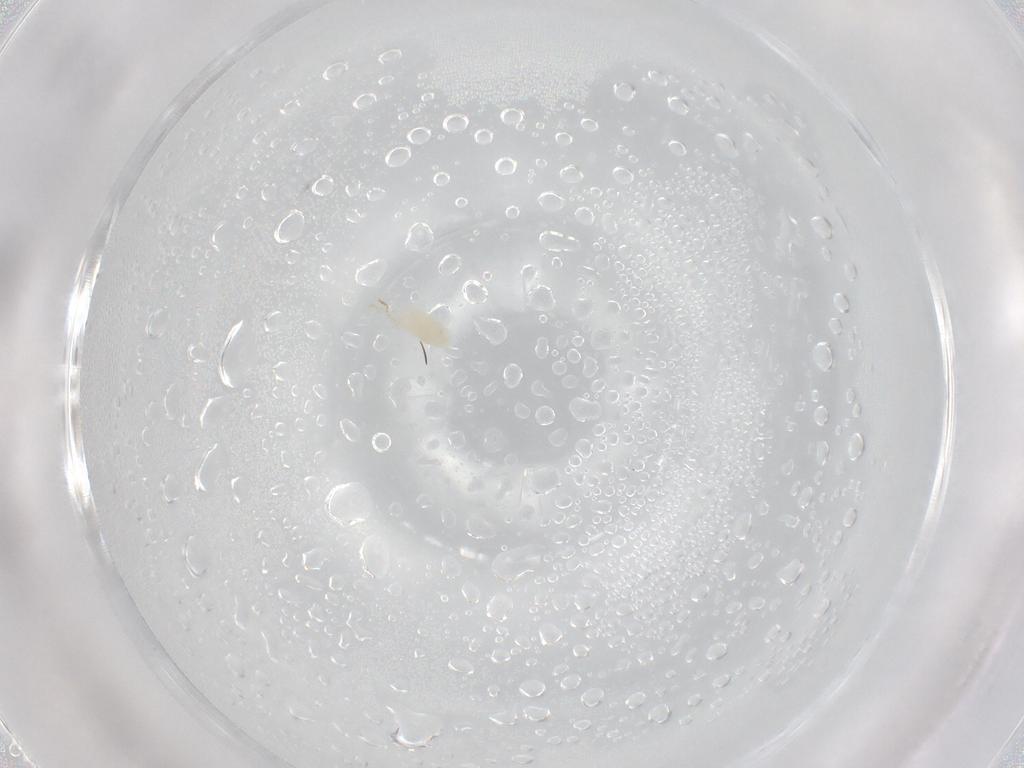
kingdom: Animalia
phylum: Arthropoda
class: Insecta
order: Diptera
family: Chironomidae
